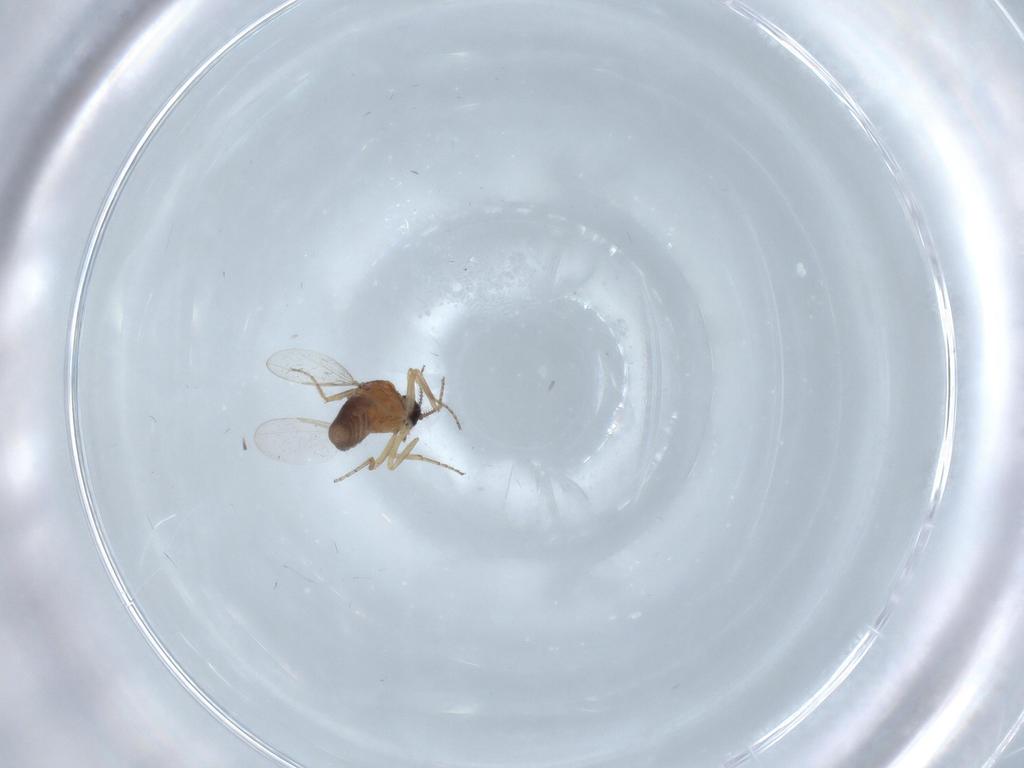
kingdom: Animalia
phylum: Arthropoda
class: Insecta
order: Diptera
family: Ceratopogonidae
